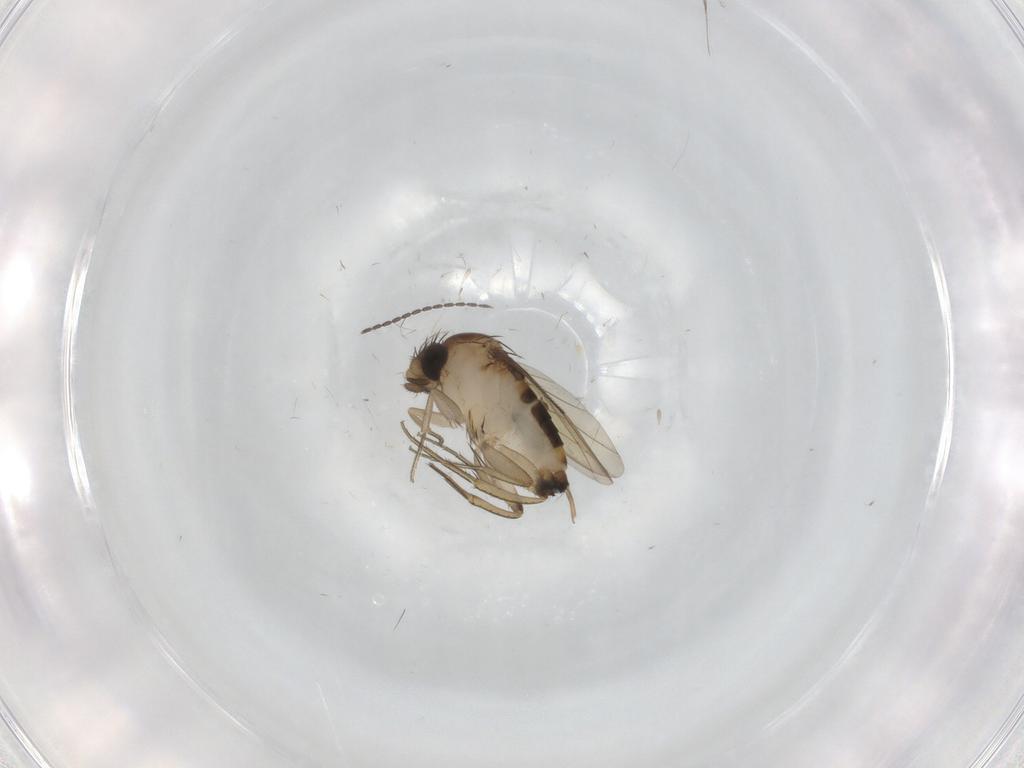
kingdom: Animalia
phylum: Arthropoda
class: Insecta
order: Diptera
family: Phoridae
